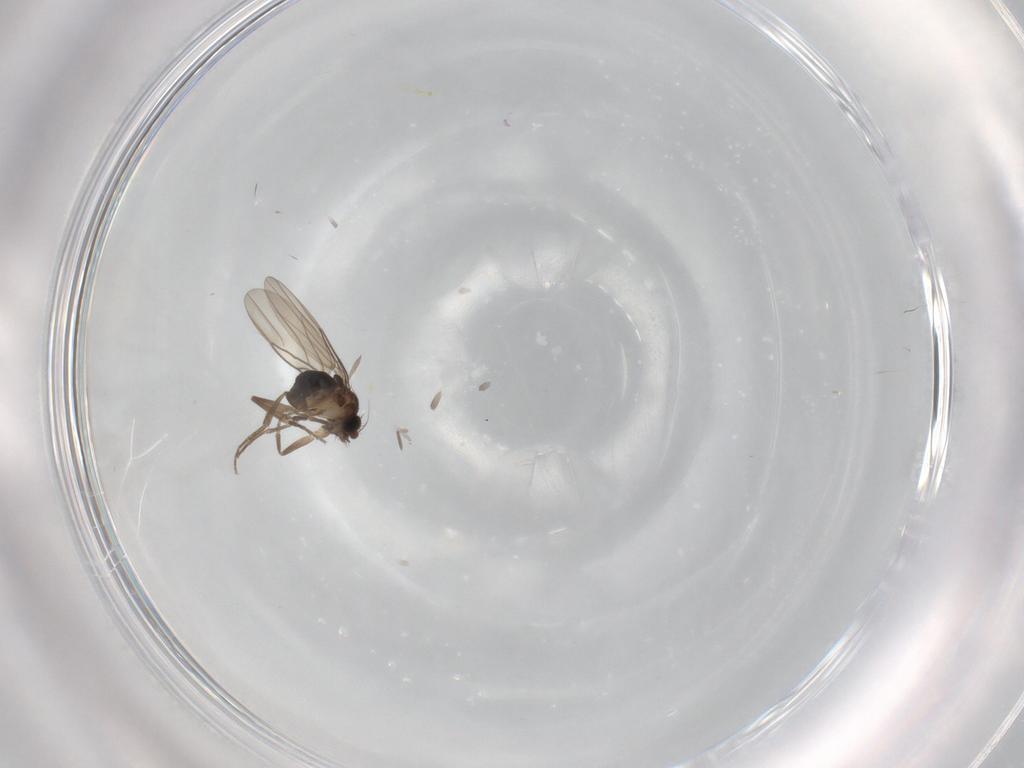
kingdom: Animalia
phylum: Arthropoda
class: Insecta
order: Diptera
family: Phoridae
